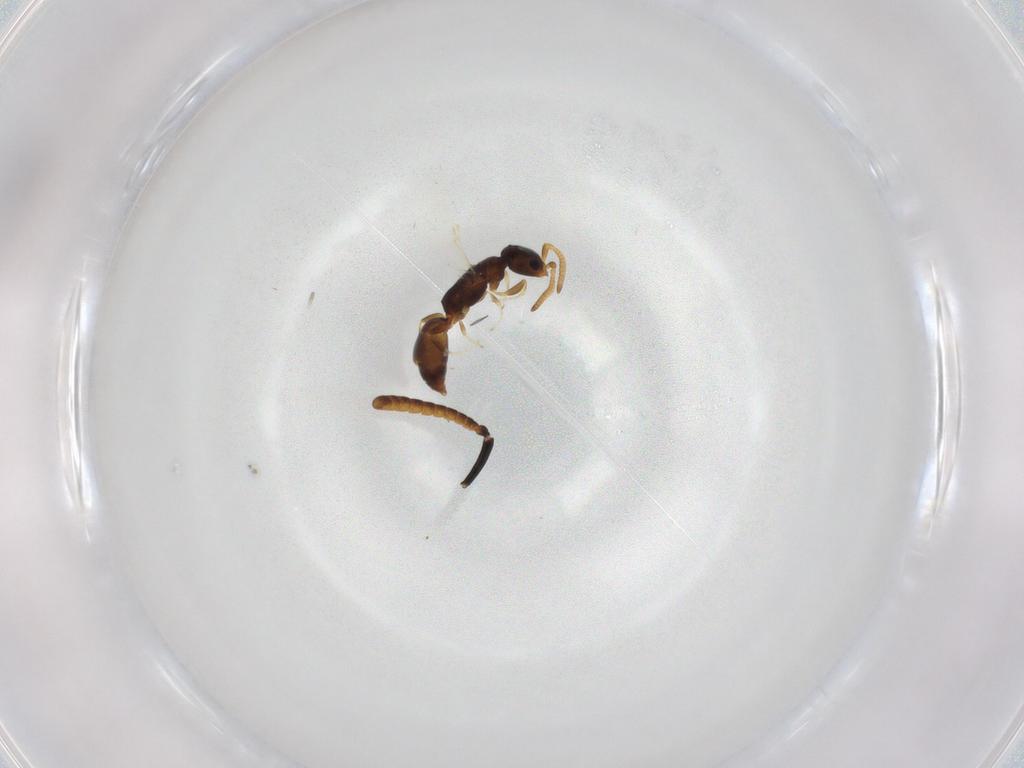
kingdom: Animalia
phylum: Arthropoda
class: Insecta
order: Hymenoptera
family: Bethylidae
